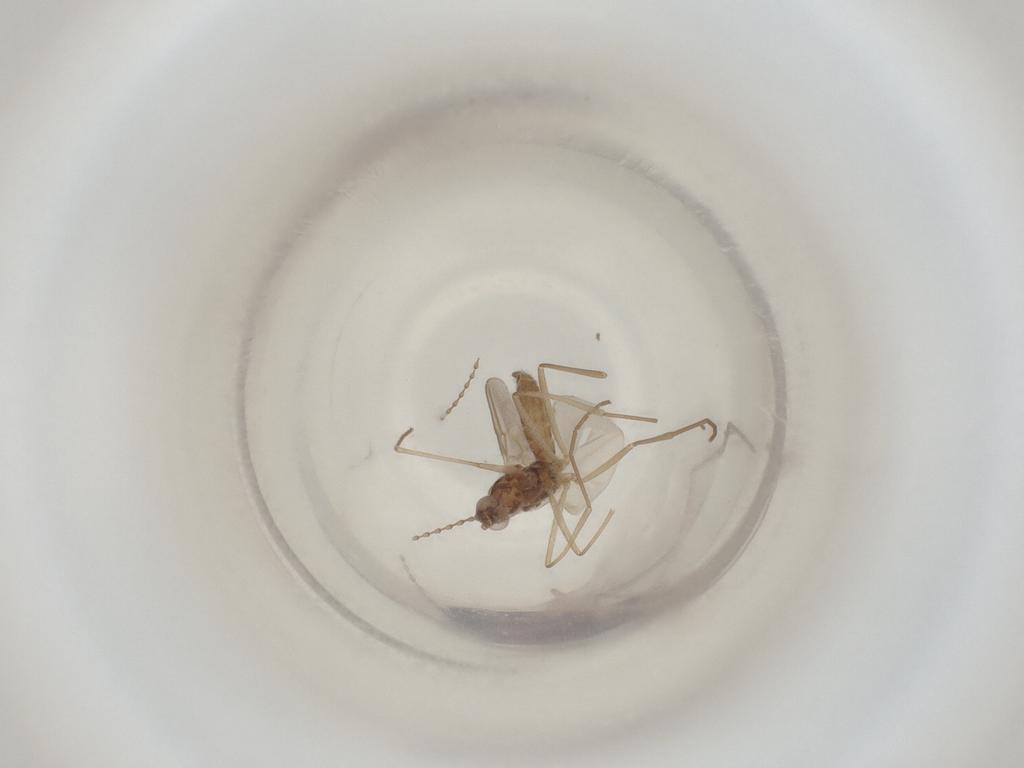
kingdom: Animalia
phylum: Arthropoda
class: Insecta
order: Diptera
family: Cecidomyiidae
